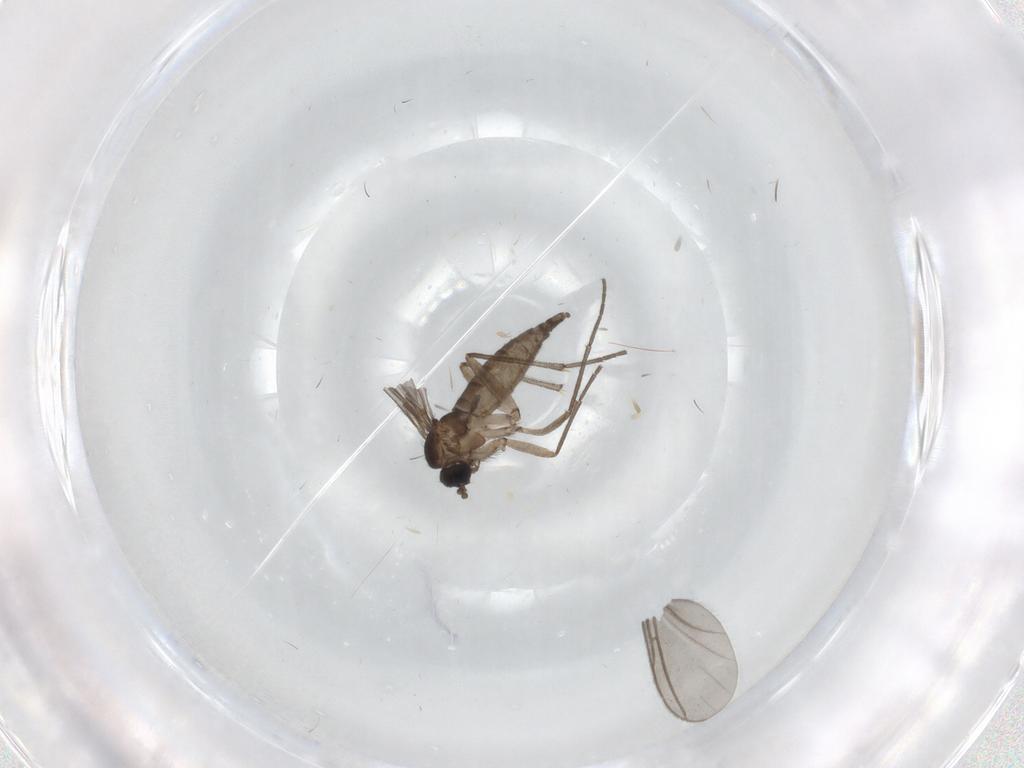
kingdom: Animalia
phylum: Arthropoda
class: Insecta
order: Diptera
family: Sciaridae
